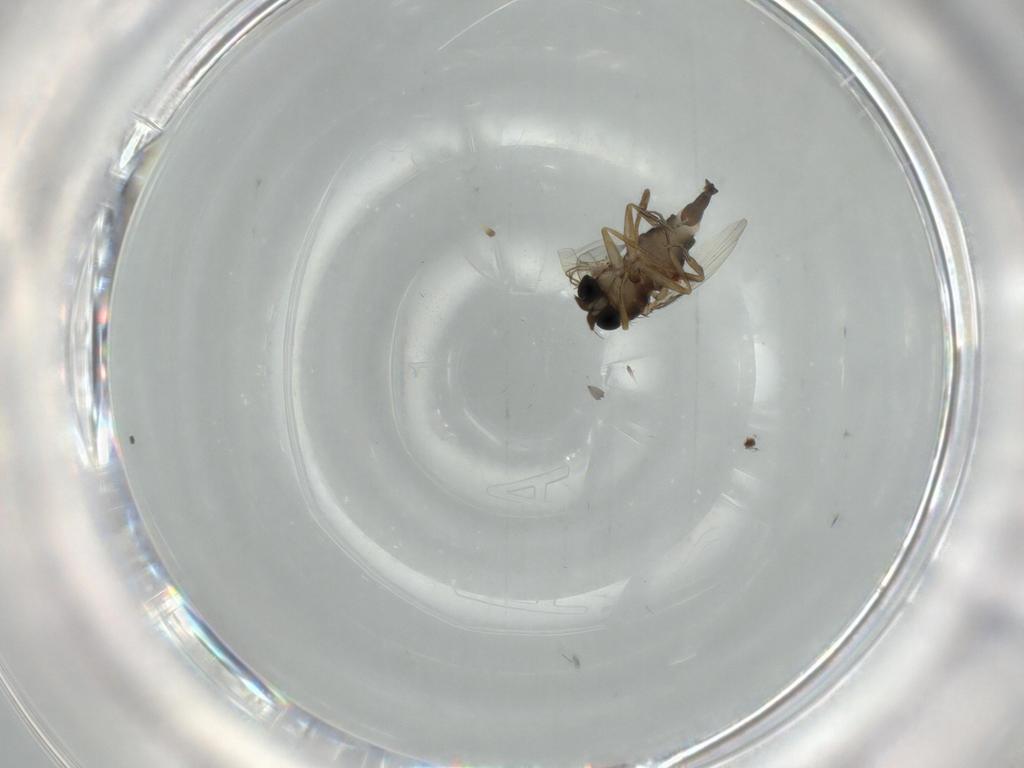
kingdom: Animalia
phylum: Arthropoda
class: Insecta
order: Diptera
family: Phoridae
